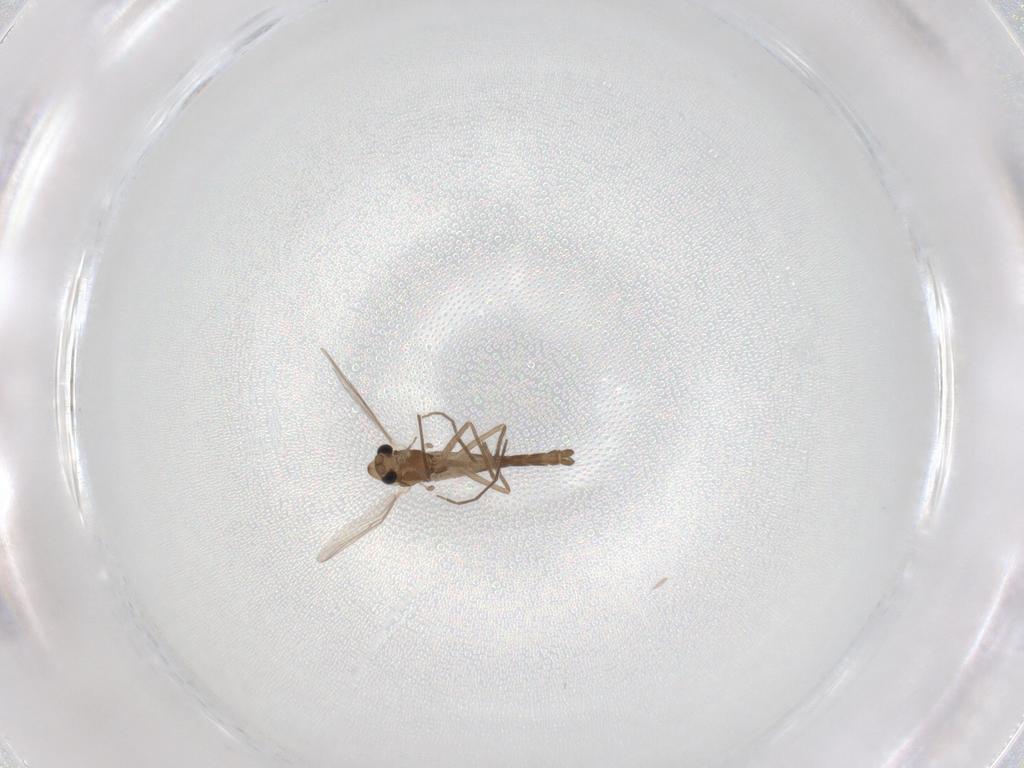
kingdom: Animalia
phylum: Arthropoda
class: Insecta
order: Diptera
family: Chironomidae
